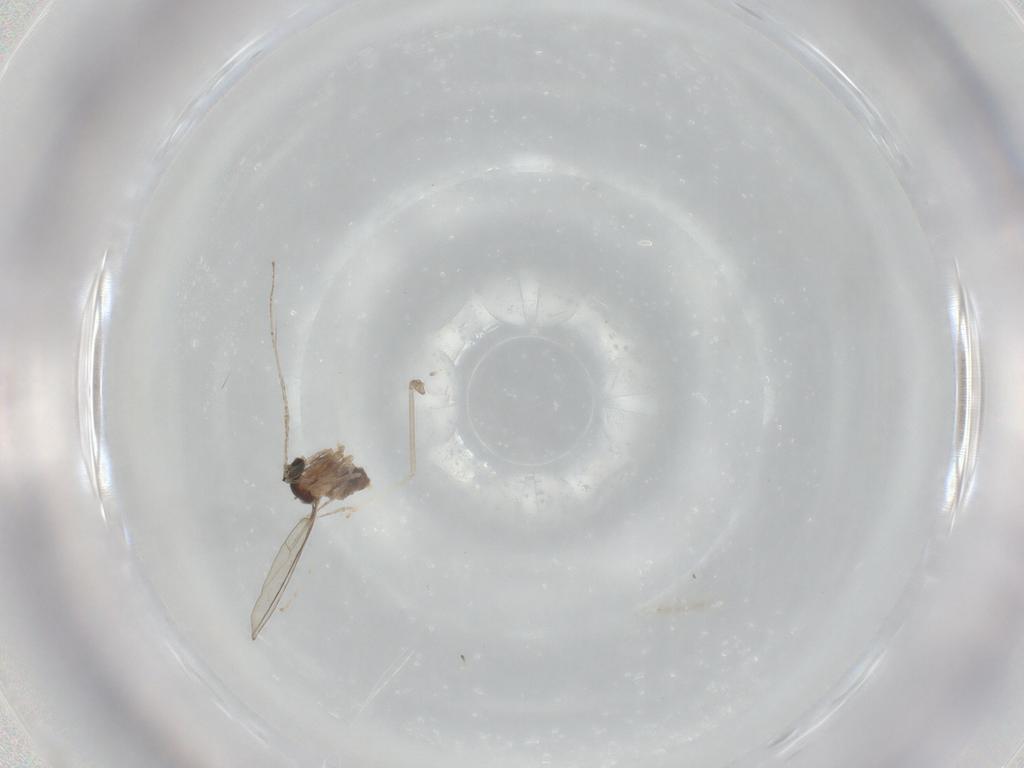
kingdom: Animalia
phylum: Arthropoda
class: Insecta
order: Diptera
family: Cecidomyiidae
